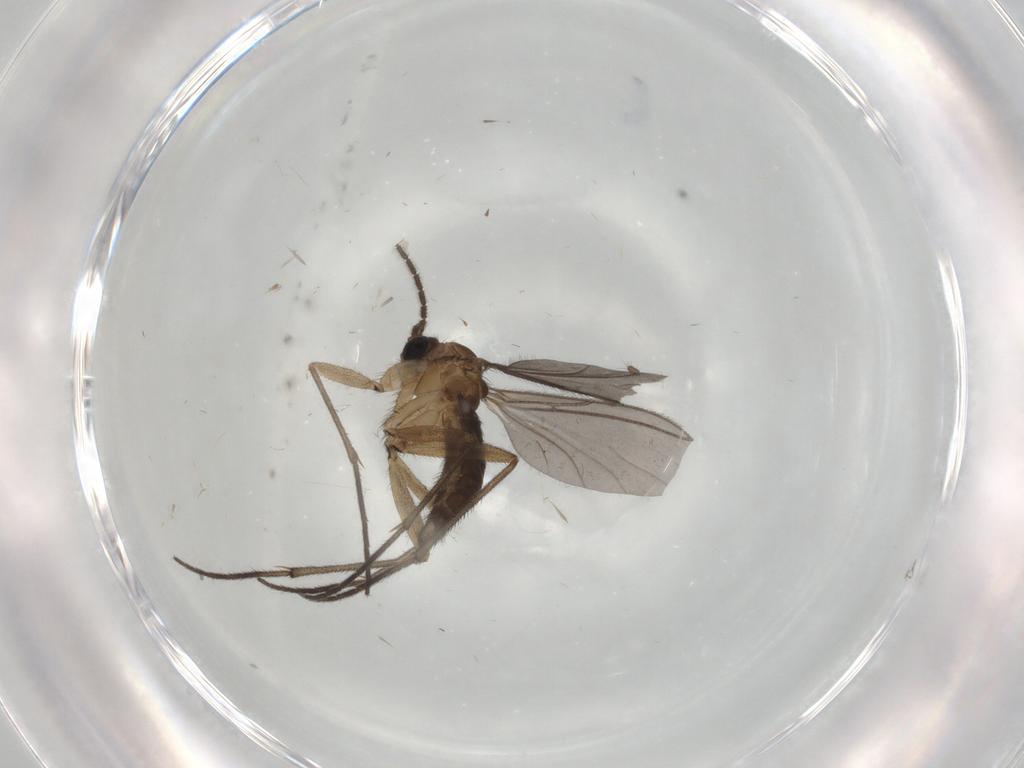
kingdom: Animalia
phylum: Arthropoda
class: Insecta
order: Diptera
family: Sciaridae
